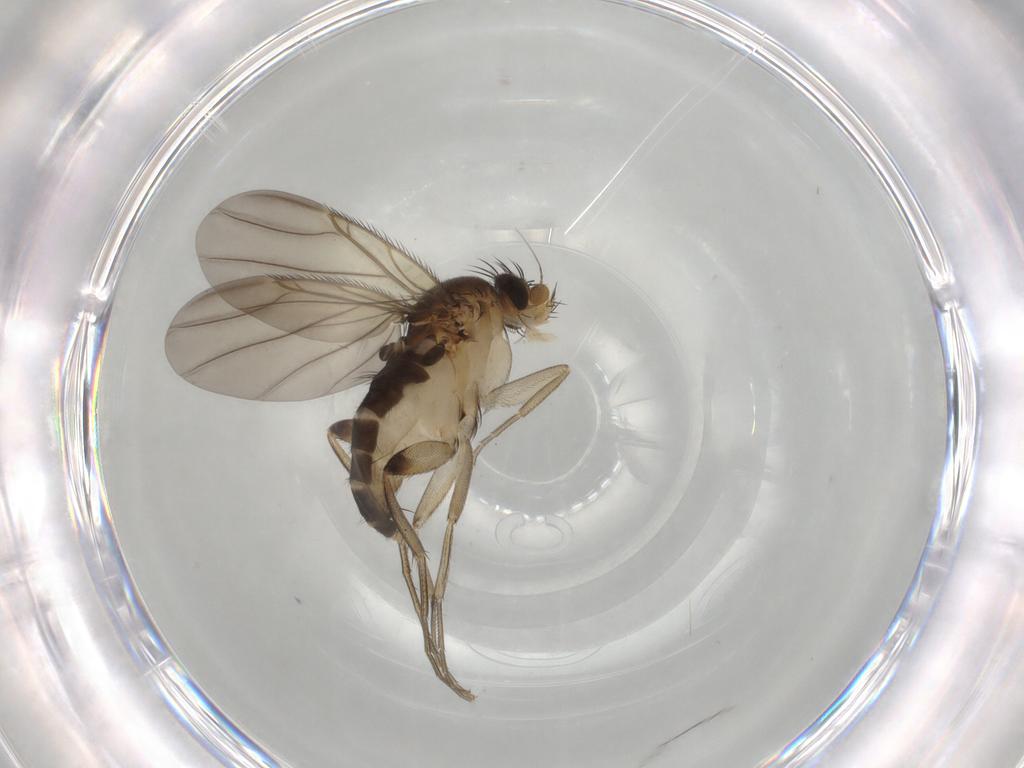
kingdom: Animalia
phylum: Arthropoda
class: Insecta
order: Diptera
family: Phoridae
